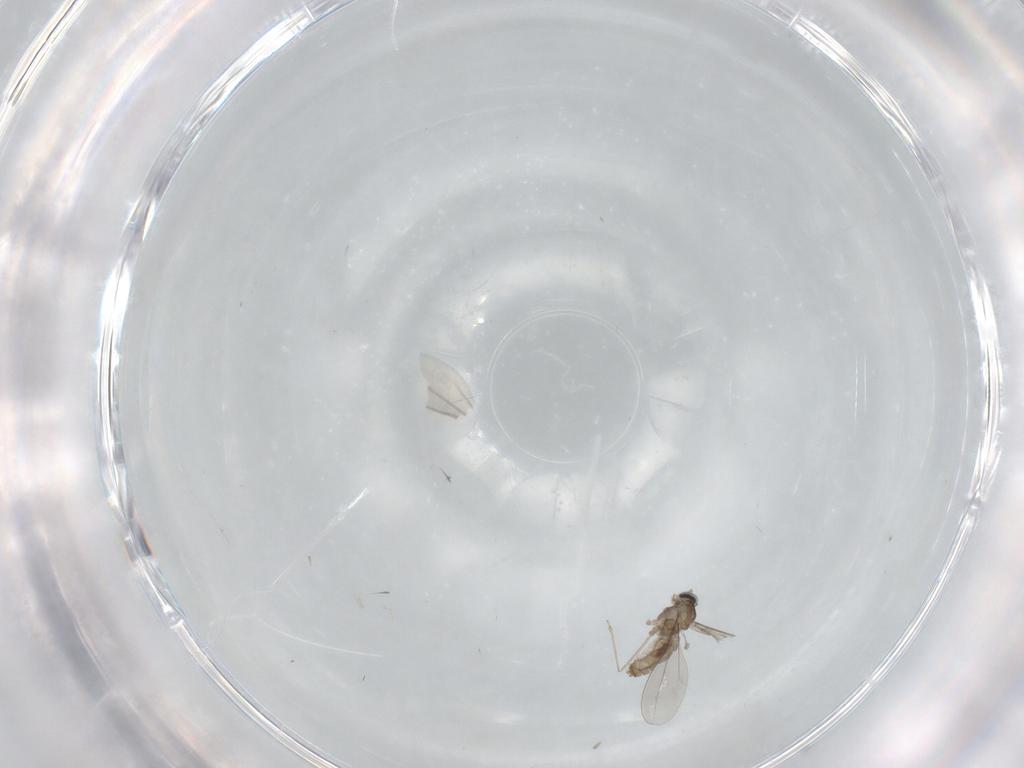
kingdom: Animalia
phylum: Arthropoda
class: Insecta
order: Diptera
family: Cecidomyiidae
